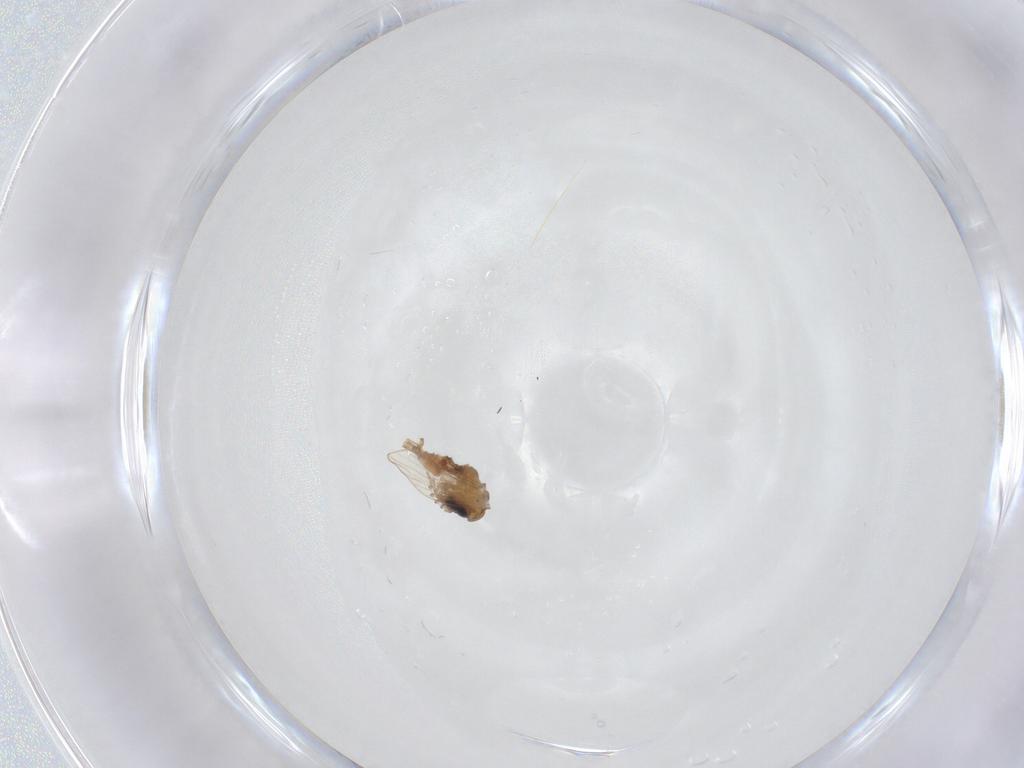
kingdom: Animalia
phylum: Arthropoda
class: Insecta
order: Diptera
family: Psychodidae
